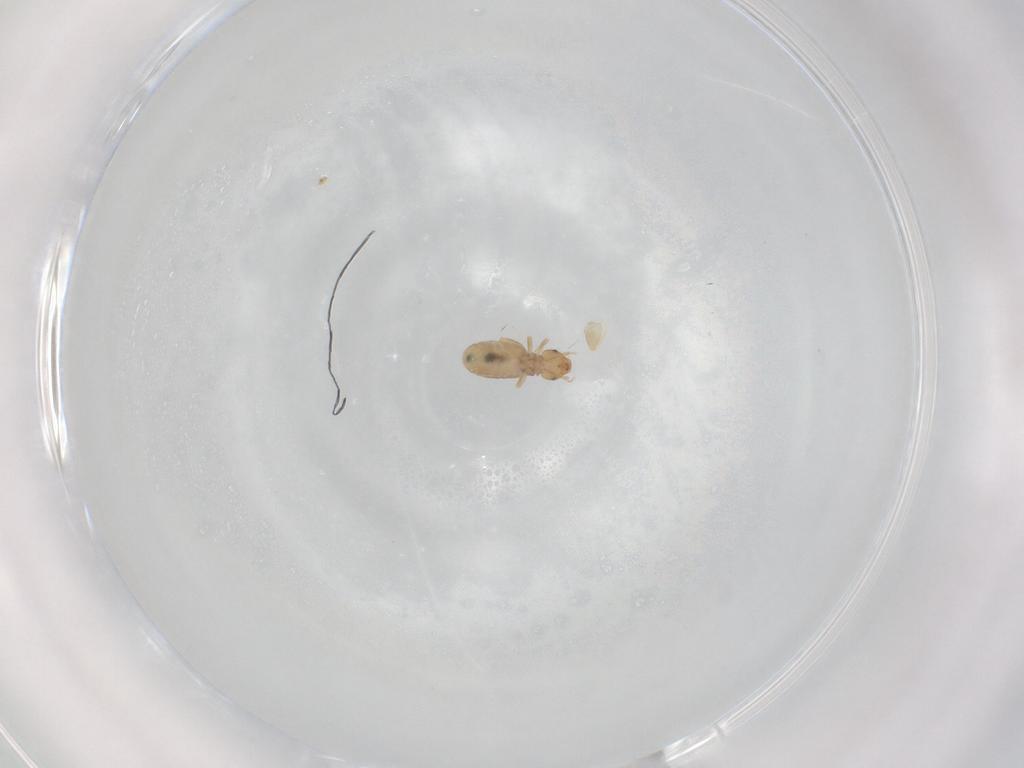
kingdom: Animalia
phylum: Arthropoda
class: Insecta
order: Psocodea
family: Liposcelididae
